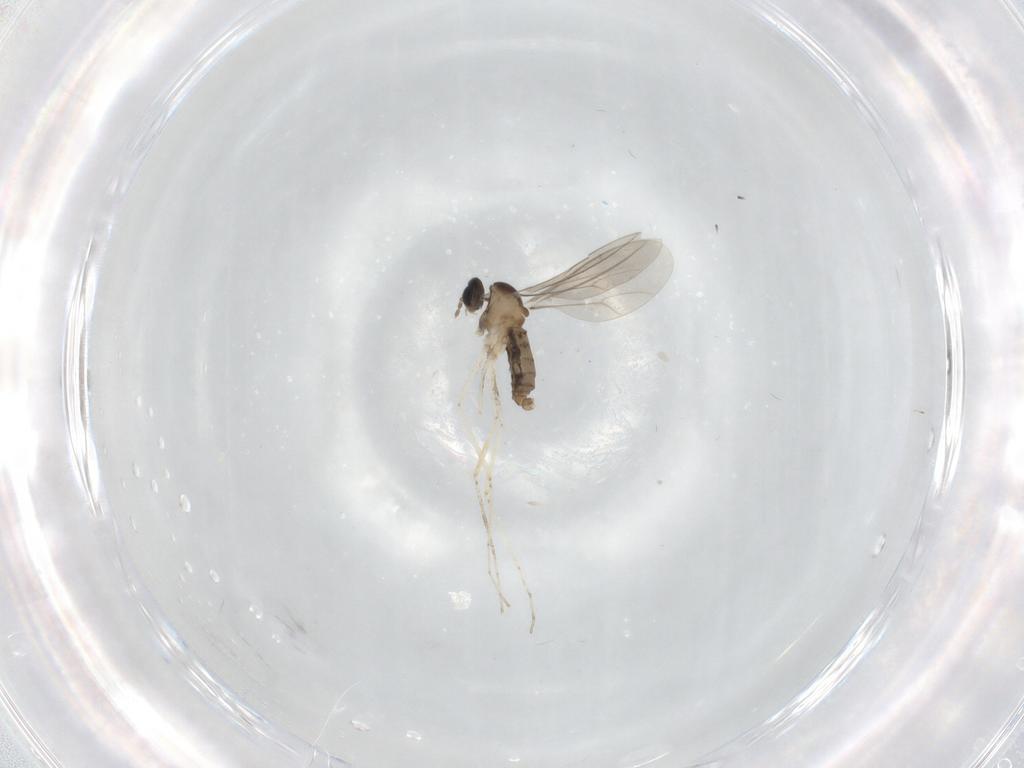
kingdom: Animalia
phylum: Arthropoda
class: Insecta
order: Diptera
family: Cecidomyiidae
